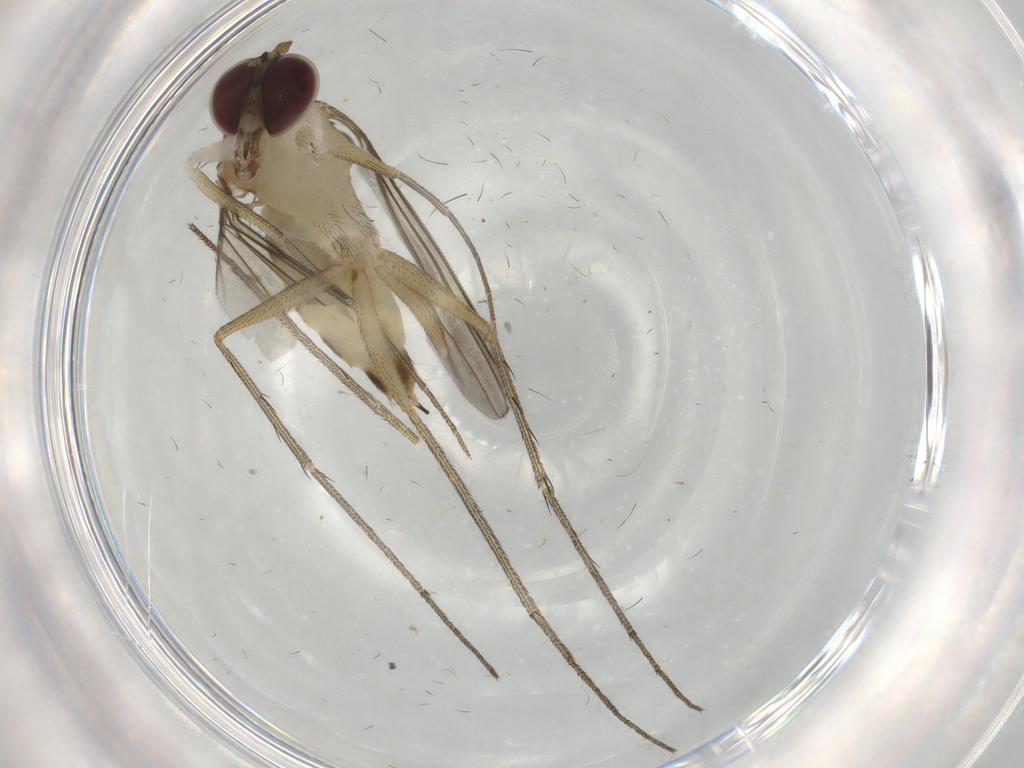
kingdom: Animalia
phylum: Arthropoda
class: Insecta
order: Diptera
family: Dolichopodidae
